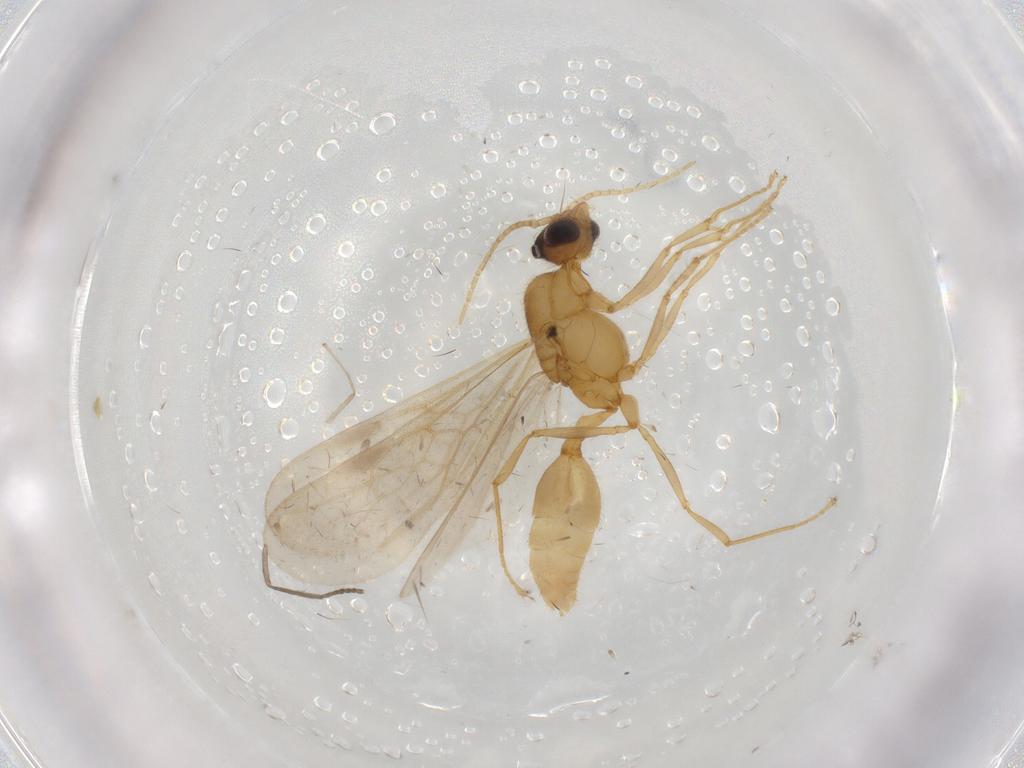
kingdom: Animalia
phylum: Arthropoda
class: Insecta
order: Hymenoptera
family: Formicidae
